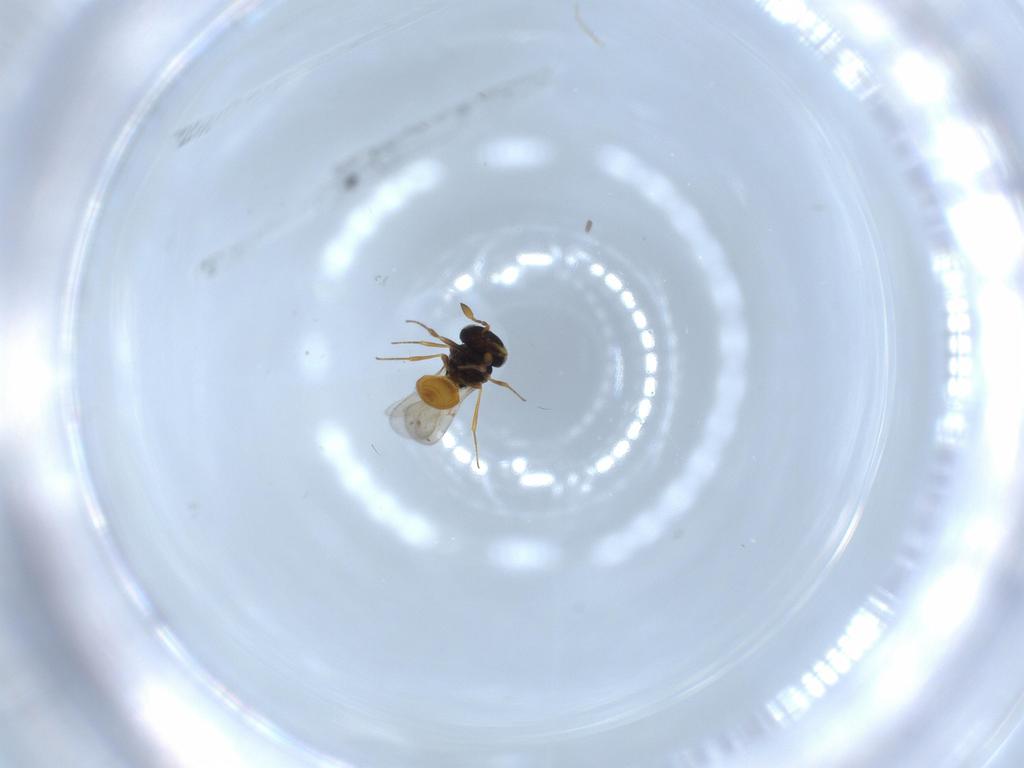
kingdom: Animalia
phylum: Arthropoda
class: Insecta
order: Hymenoptera
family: Scelionidae
